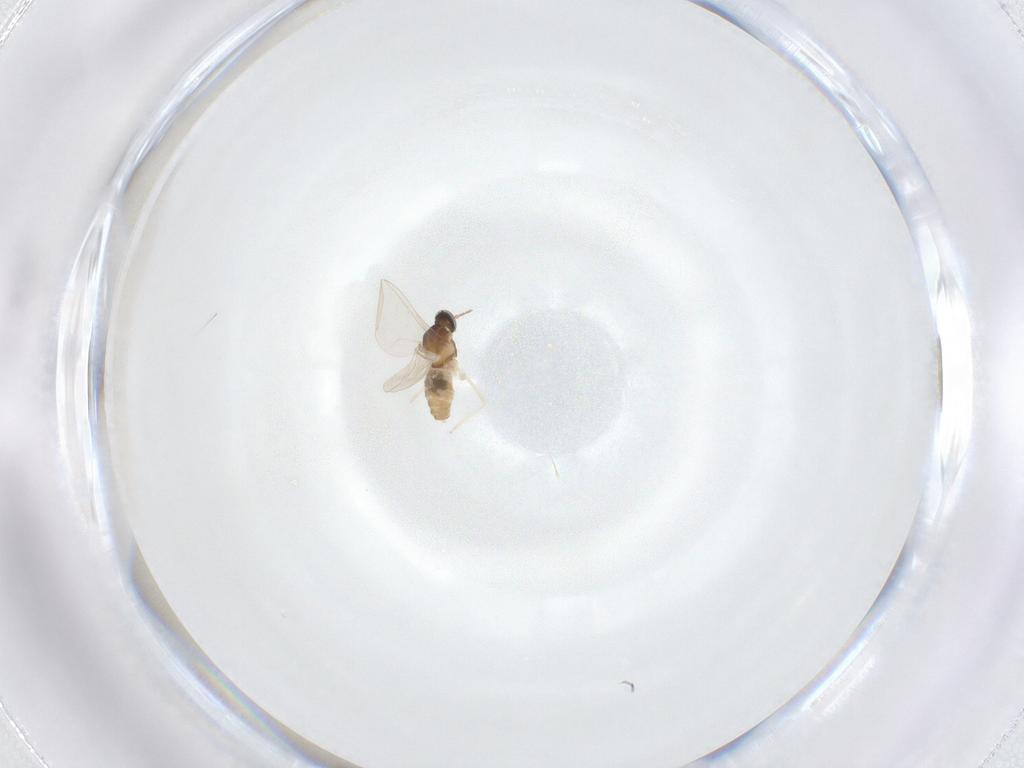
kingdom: Animalia
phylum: Arthropoda
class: Insecta
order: Diptera
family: Cecidomyiidae
